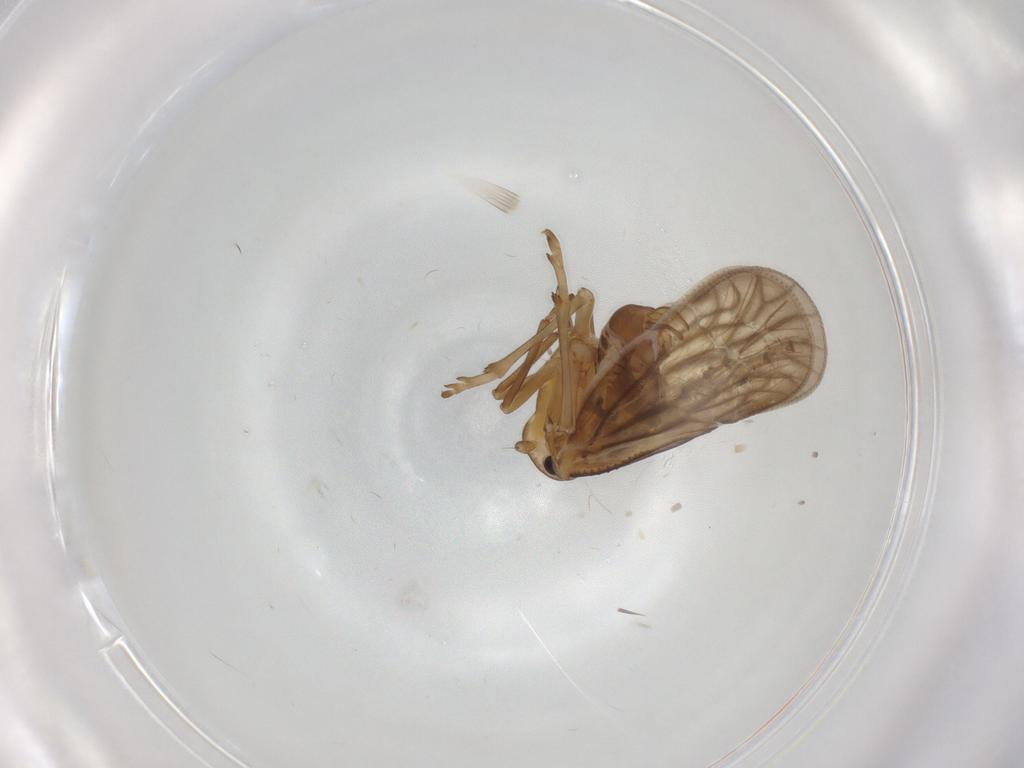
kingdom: Animalia
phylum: Arthropoda
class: Insecta
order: Hemiptera
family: Meenoplidae
